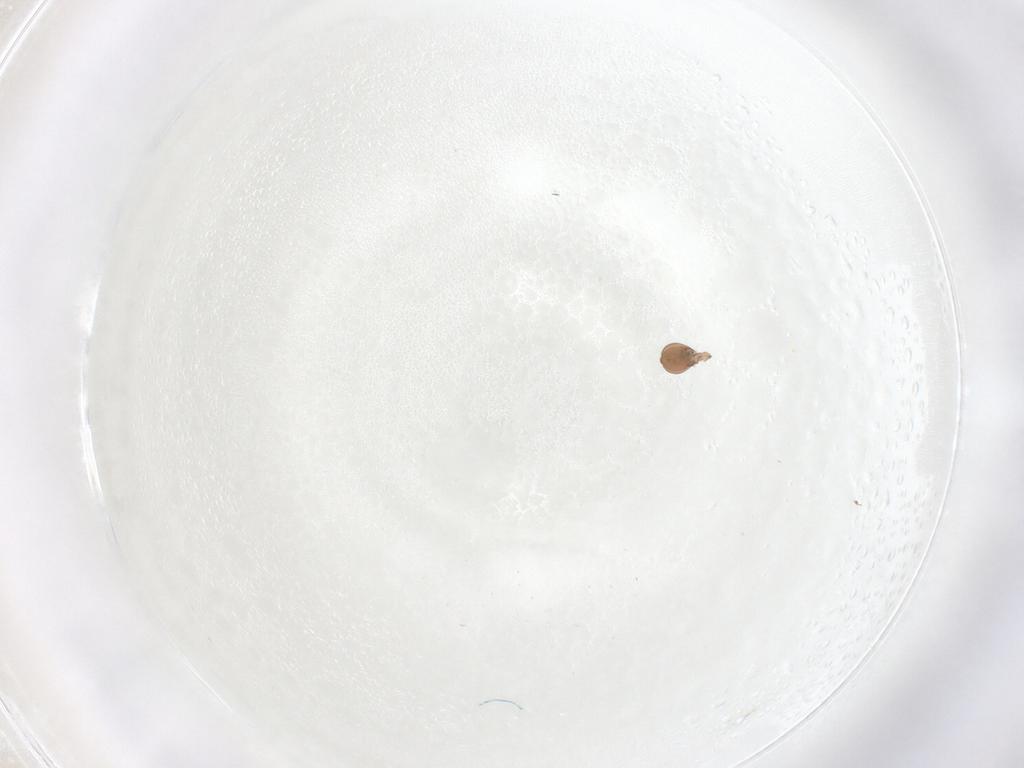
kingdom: Animalia
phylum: Arthropoda
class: Arachnida
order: Sarcoptiformes
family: Oribatulidae
